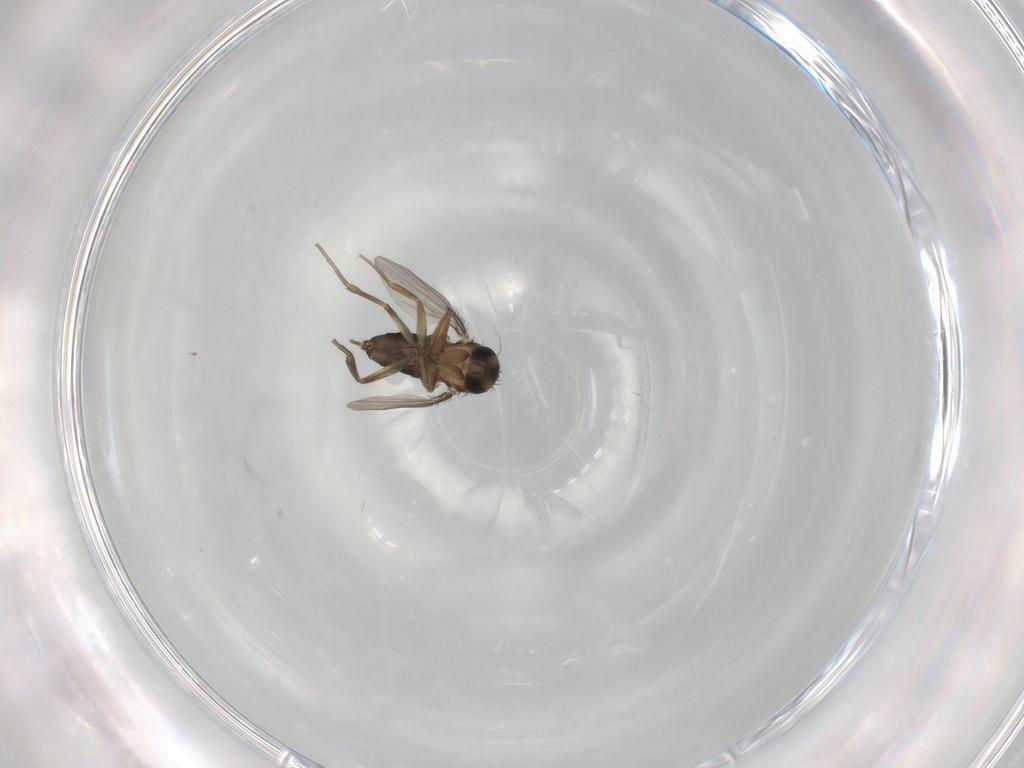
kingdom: Animalia
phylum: Arthropoda
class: Insecta
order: Diptera
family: Phoridae
